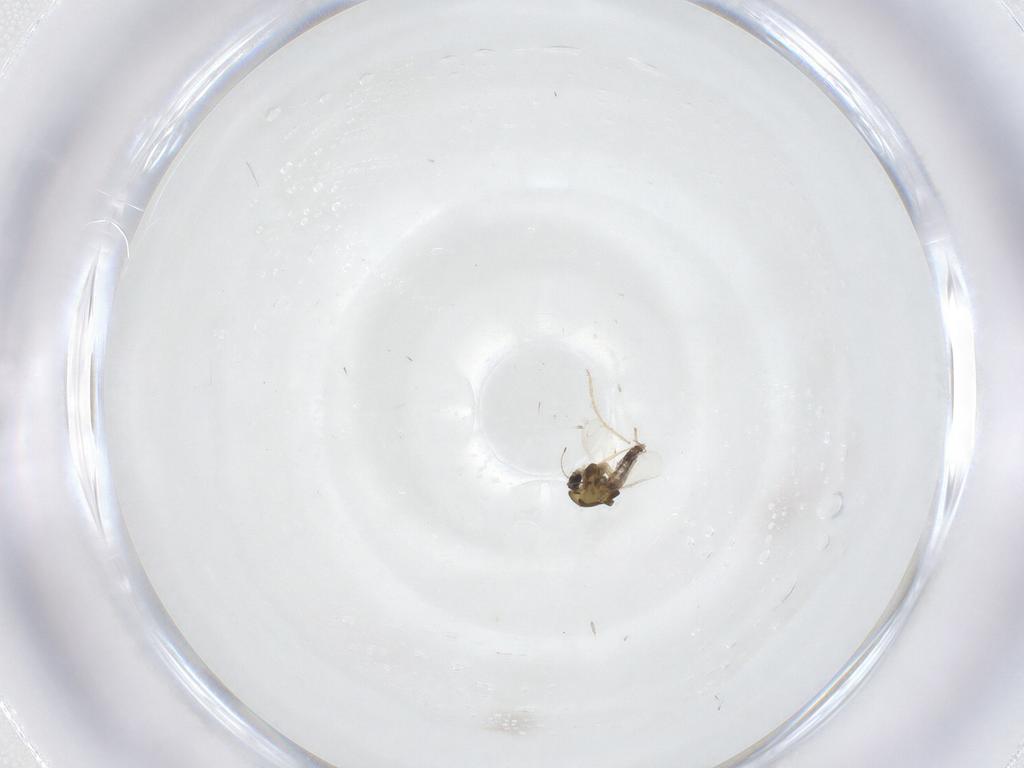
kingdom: Animalia
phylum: Arthropoda
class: Insecta
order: Diptera
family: Chironomidae
